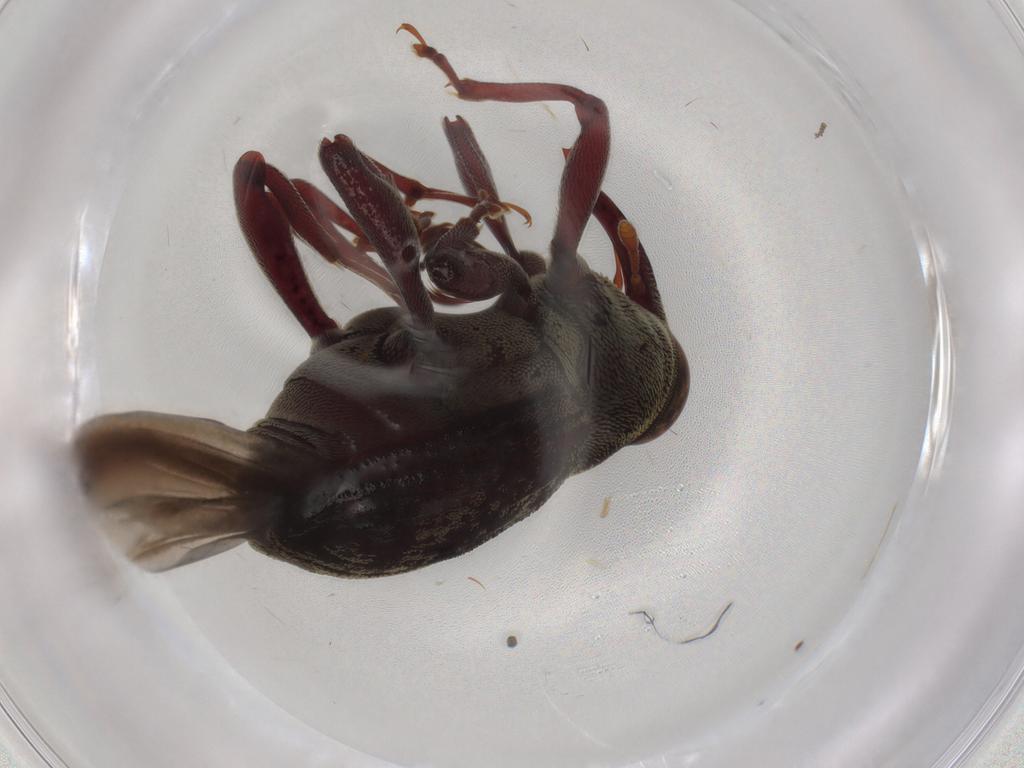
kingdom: Animalia
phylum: Arthropoda
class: Insecta
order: Coleoptera
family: Curculionidae
